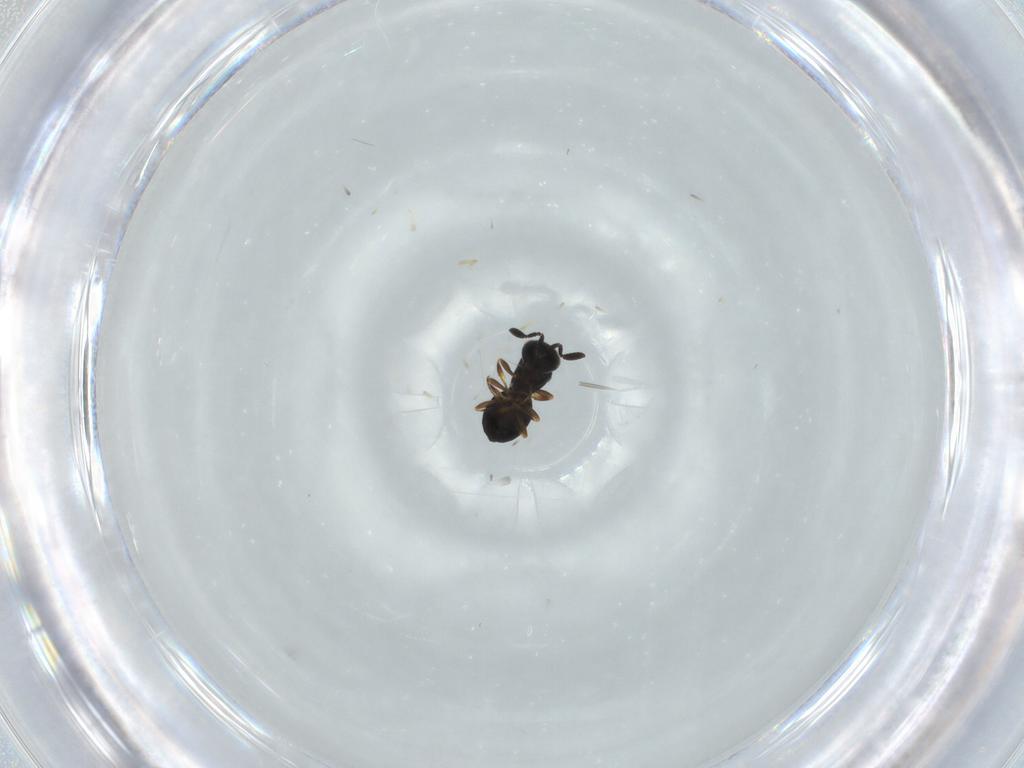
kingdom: Animalia
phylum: Arthropoda
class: Insecta
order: Hymenoptera
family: Scelionidae
